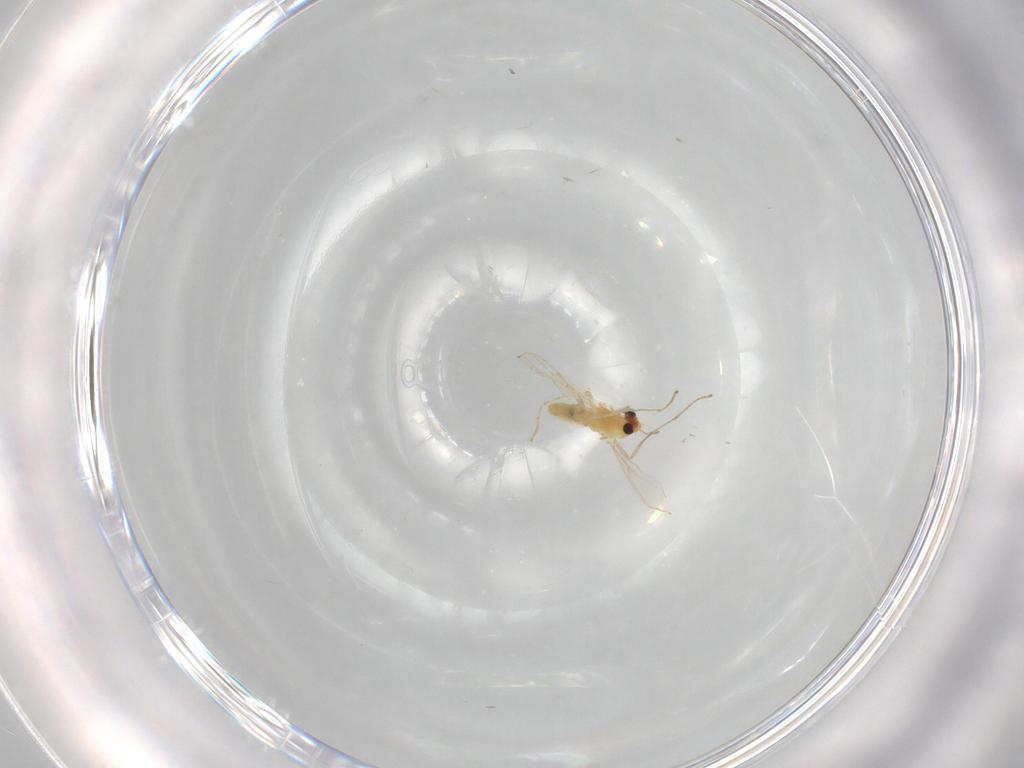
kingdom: Animalia
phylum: Arthropoda
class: Insecta
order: Diptera
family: Chironomidae
